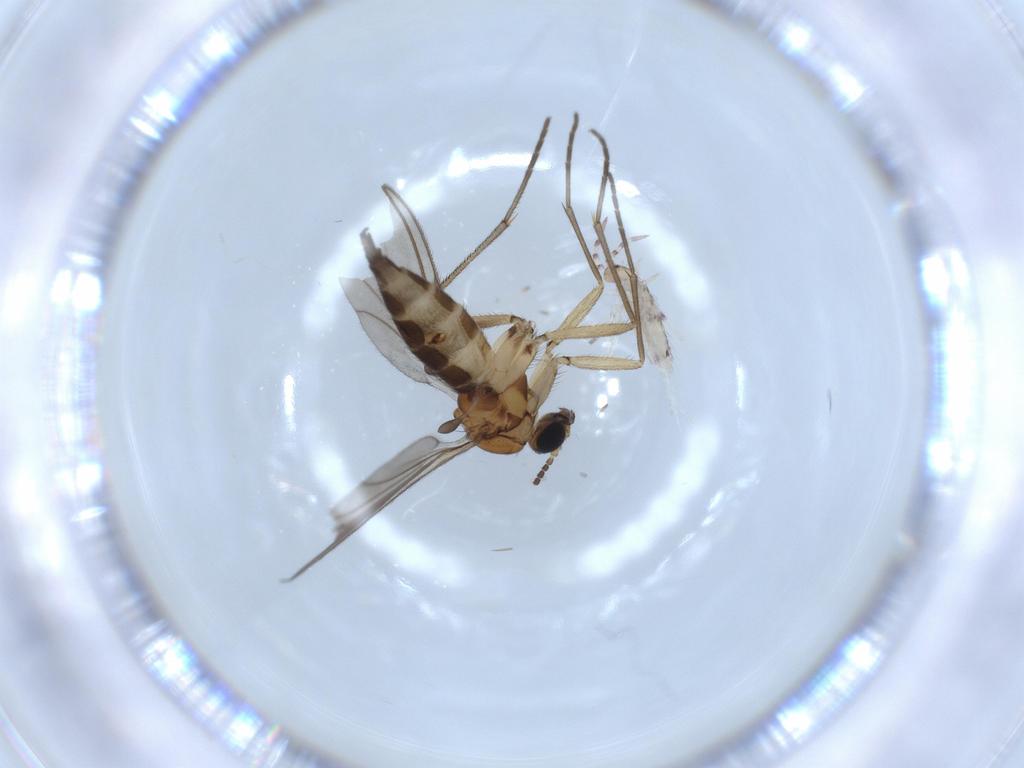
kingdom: Animalia
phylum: Arthropoda
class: Insecta
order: Diptera
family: Sciaridae
